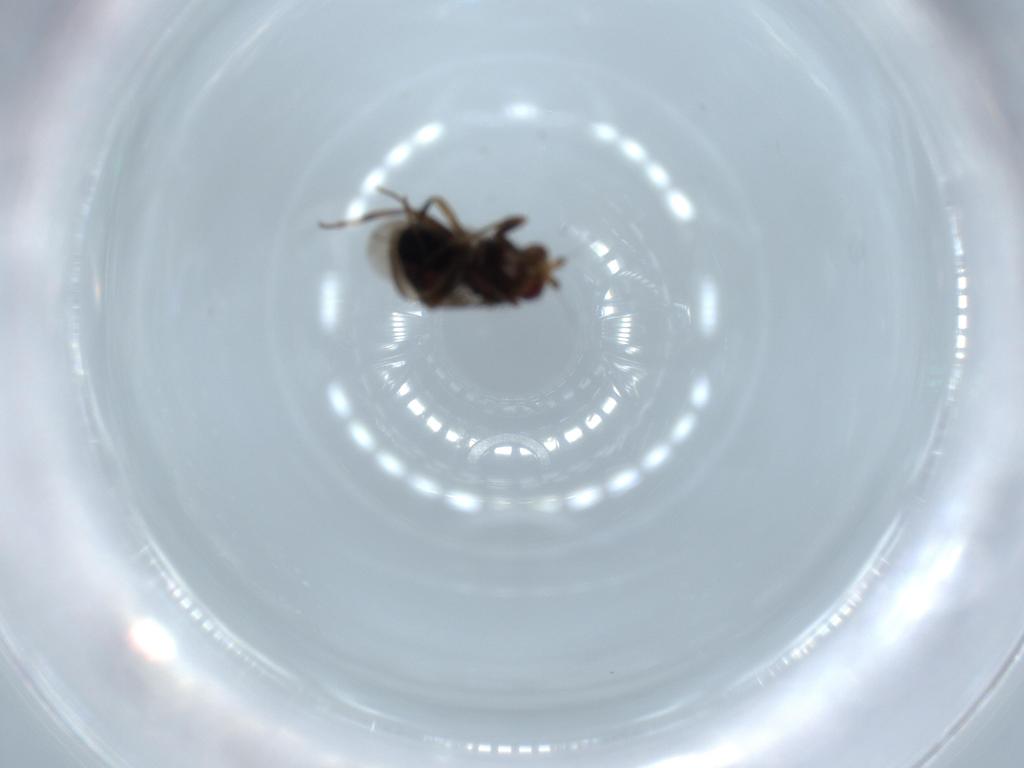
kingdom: Animalia
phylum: Arthropoda
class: Insecta
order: Diptera
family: Sphaeroceridae
